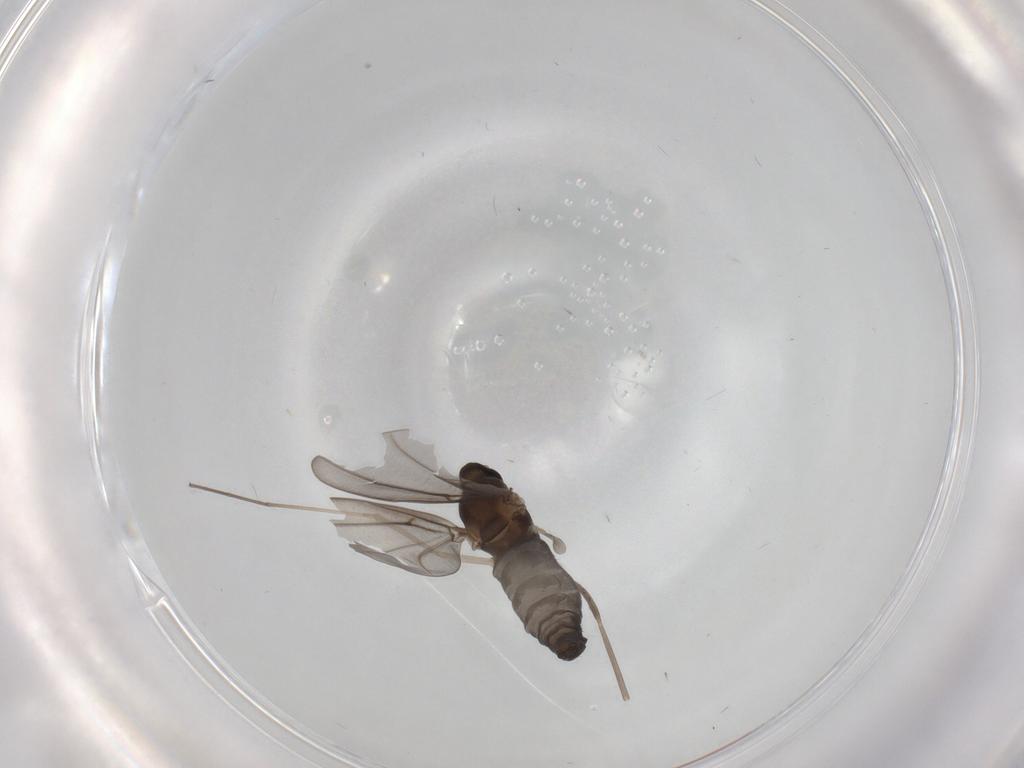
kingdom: Animalia
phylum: Arthropoda
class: Insecta
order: Diptera
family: Cecidomyiidae
